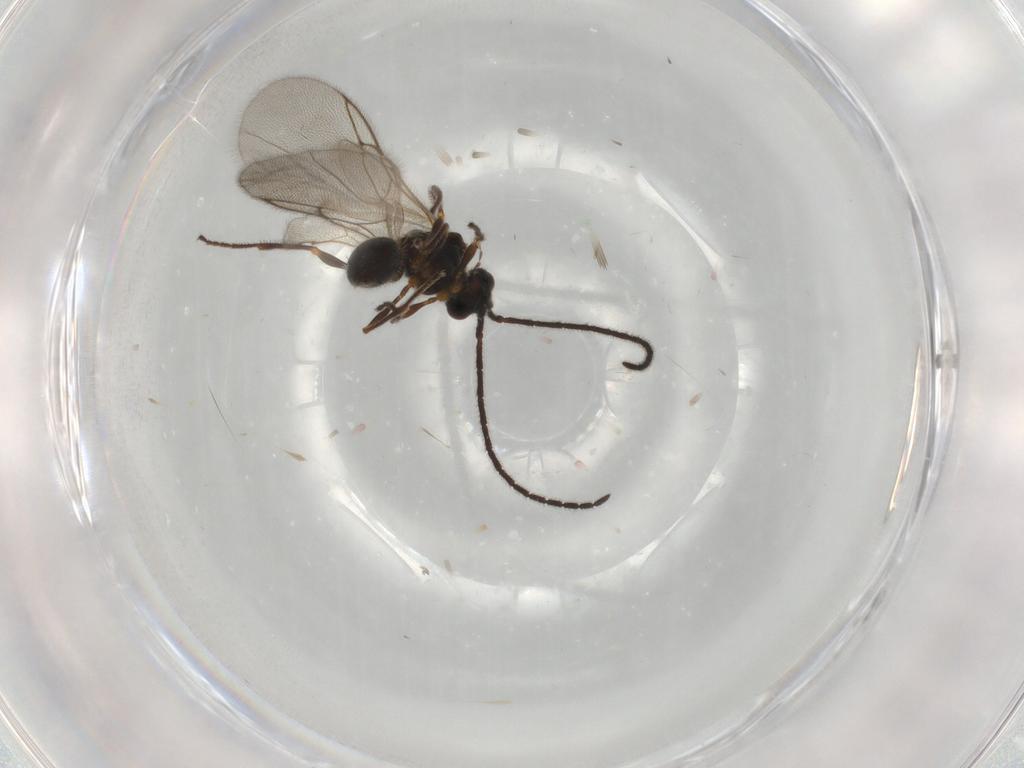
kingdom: Animalia
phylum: Arthropoda
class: Insecta
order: Hymenoptera
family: Diapriidae
